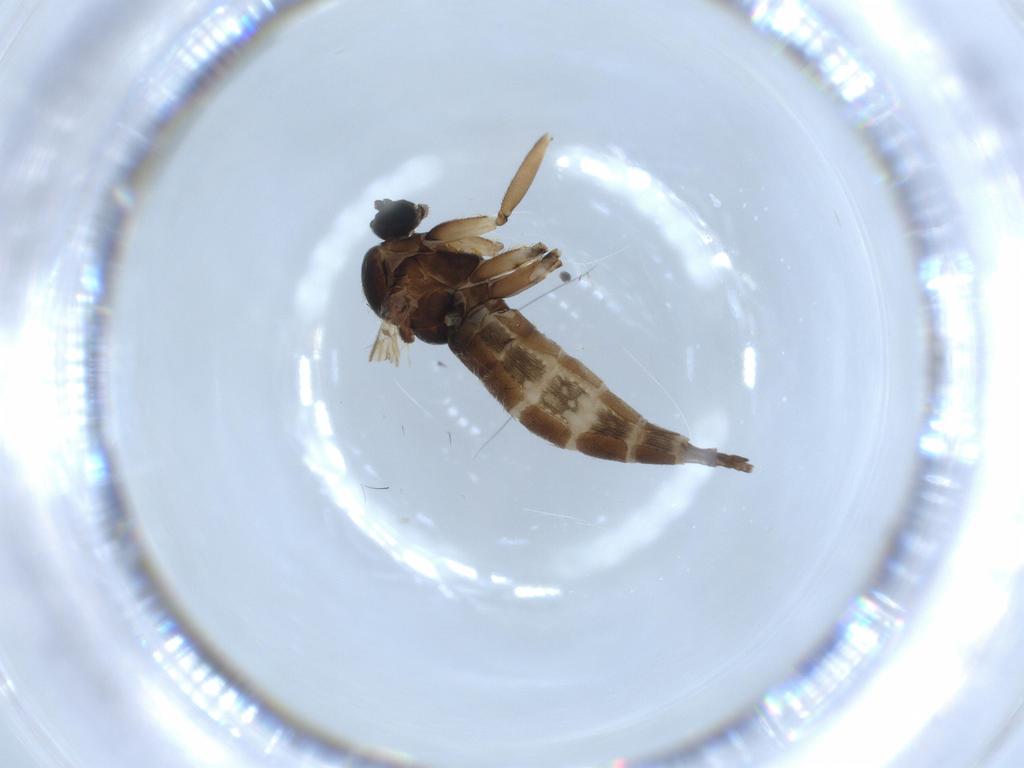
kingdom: Animalia
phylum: Arthropoda
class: Insecta
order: Diptera
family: Sciaridae
